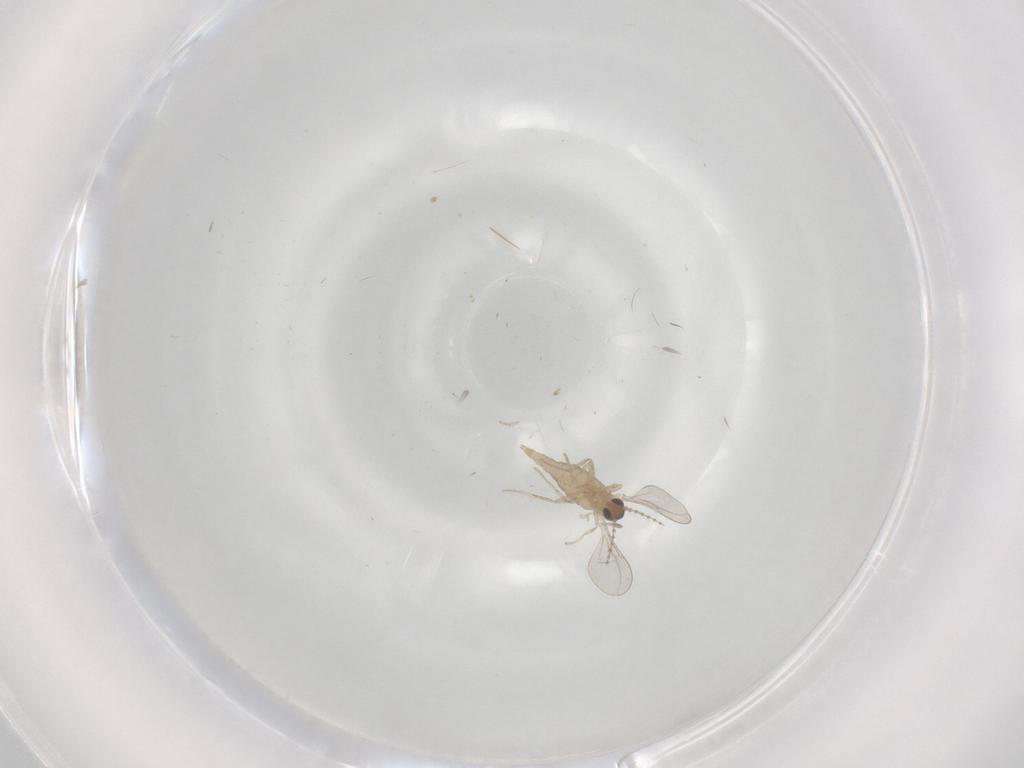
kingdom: Animalia
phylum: Arthropoda
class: Insecta
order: Diptera
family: Cecidomyiidae
